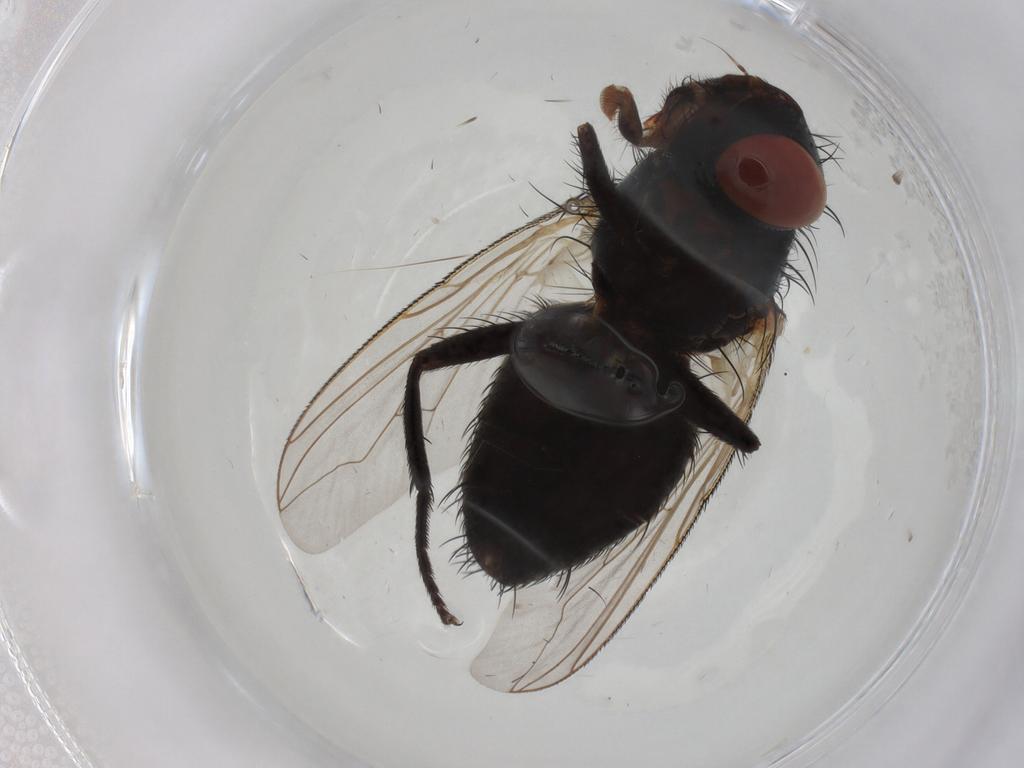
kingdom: Animalia
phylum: Arthropoda
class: Insecta
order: Diptera
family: Sarcophagidae
